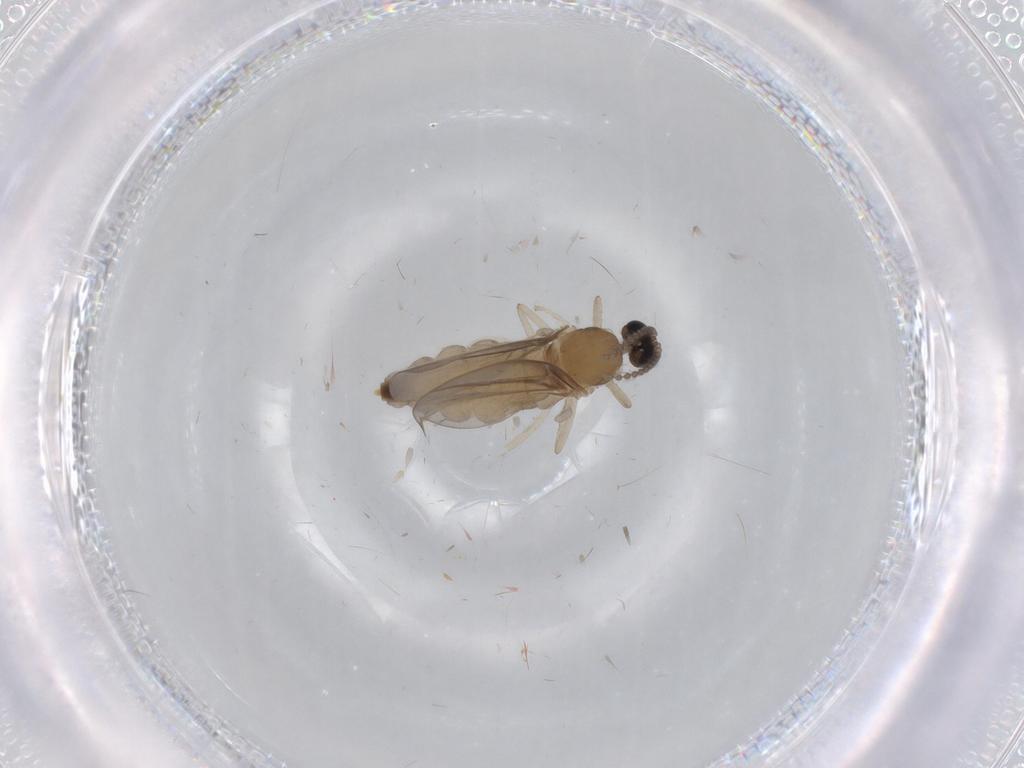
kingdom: Animalia
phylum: Arthropoda
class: Insecta
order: Diptera
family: Cecidomyiidae
